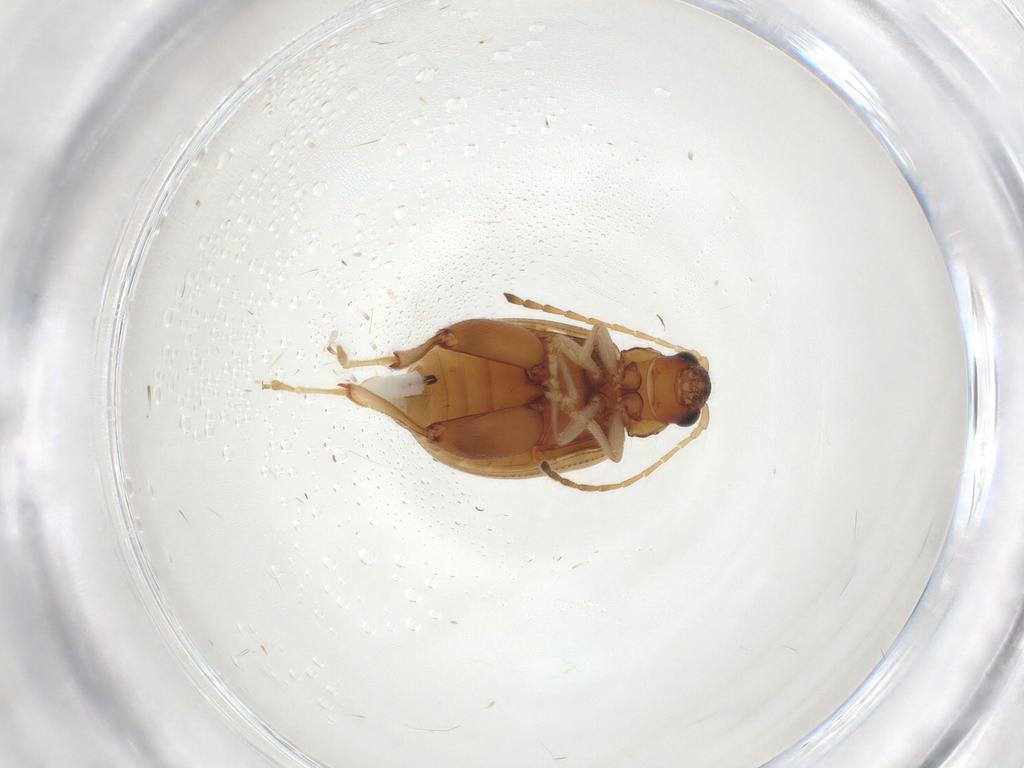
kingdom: Animalia
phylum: Arthropoda
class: Insecta
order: Coleoptera
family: Chrysomelidae
